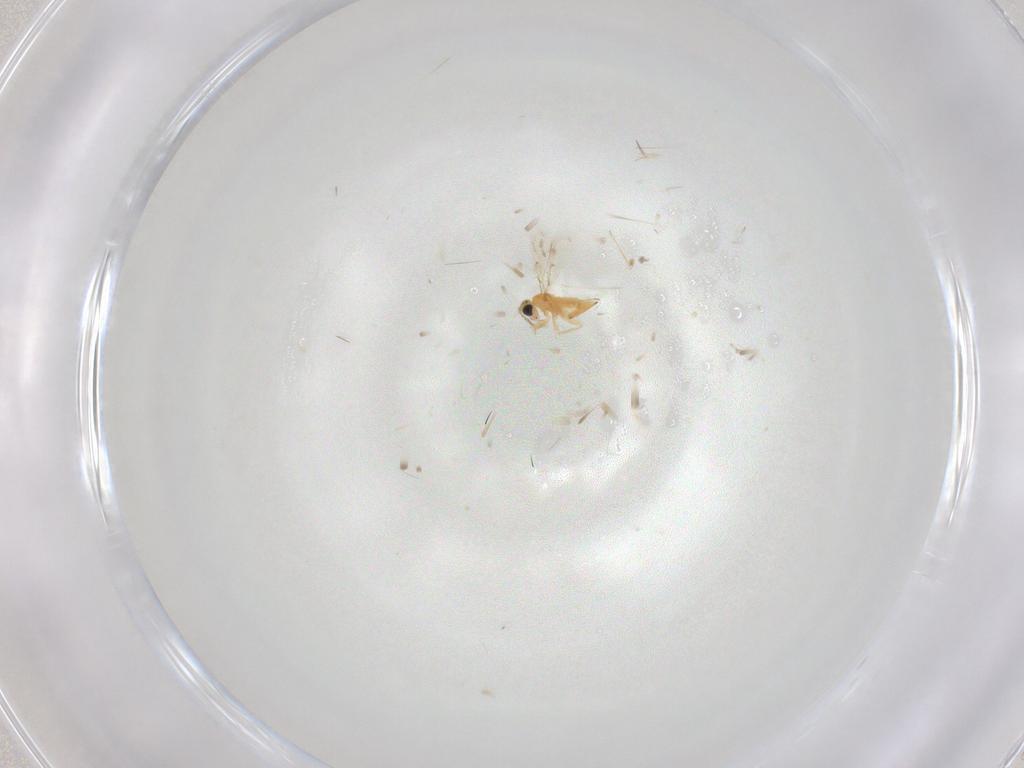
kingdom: Animalia
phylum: Arthropoda
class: Insecta
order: Hymenoptera
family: Trichogrammatidae
